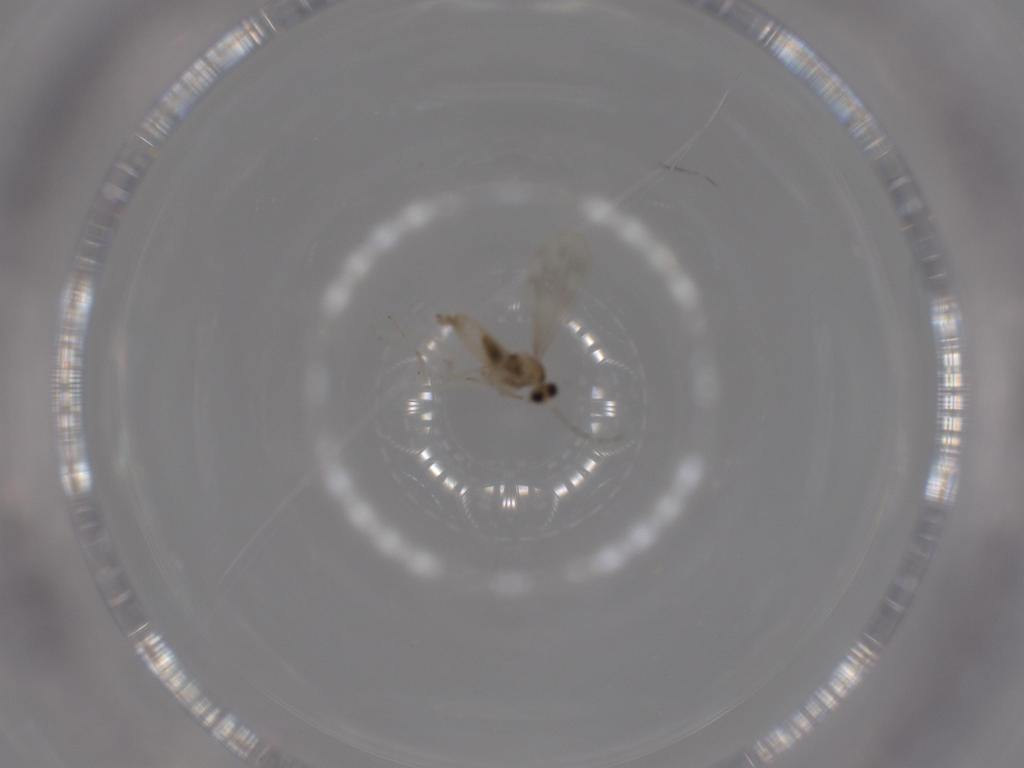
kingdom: Animalia
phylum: Arthropoda
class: Insecta
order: Diptera
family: Cecidomyiidae
